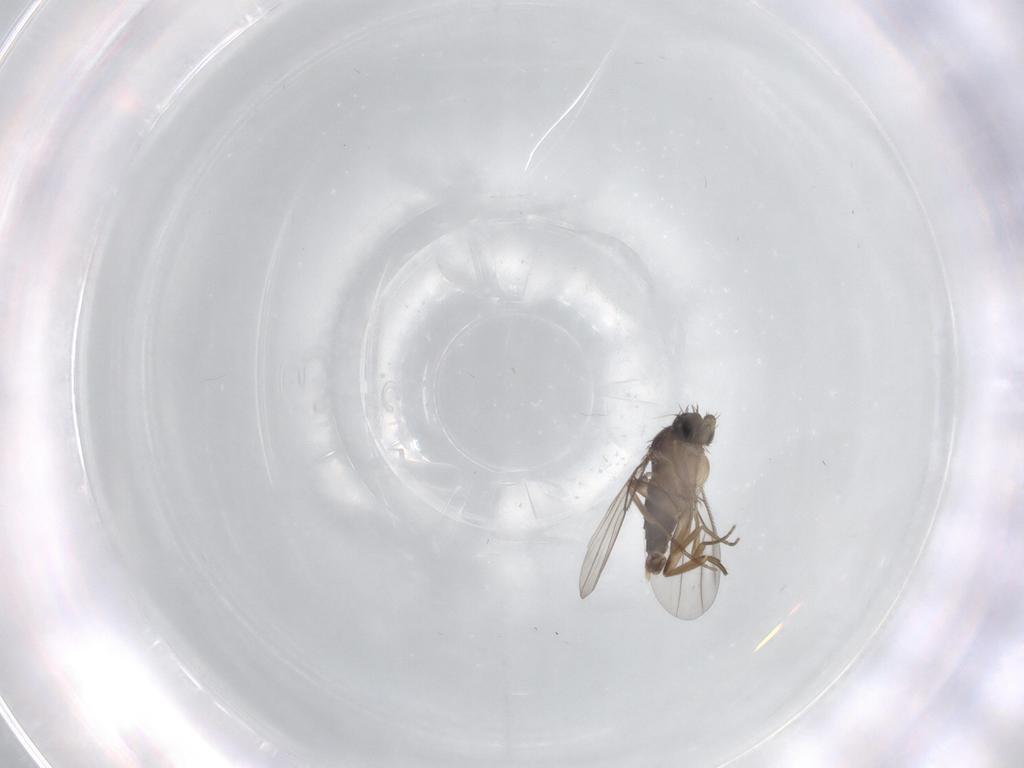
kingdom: Animalia
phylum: Arthropoda
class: Insecta
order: Diptera
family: Phoridae
